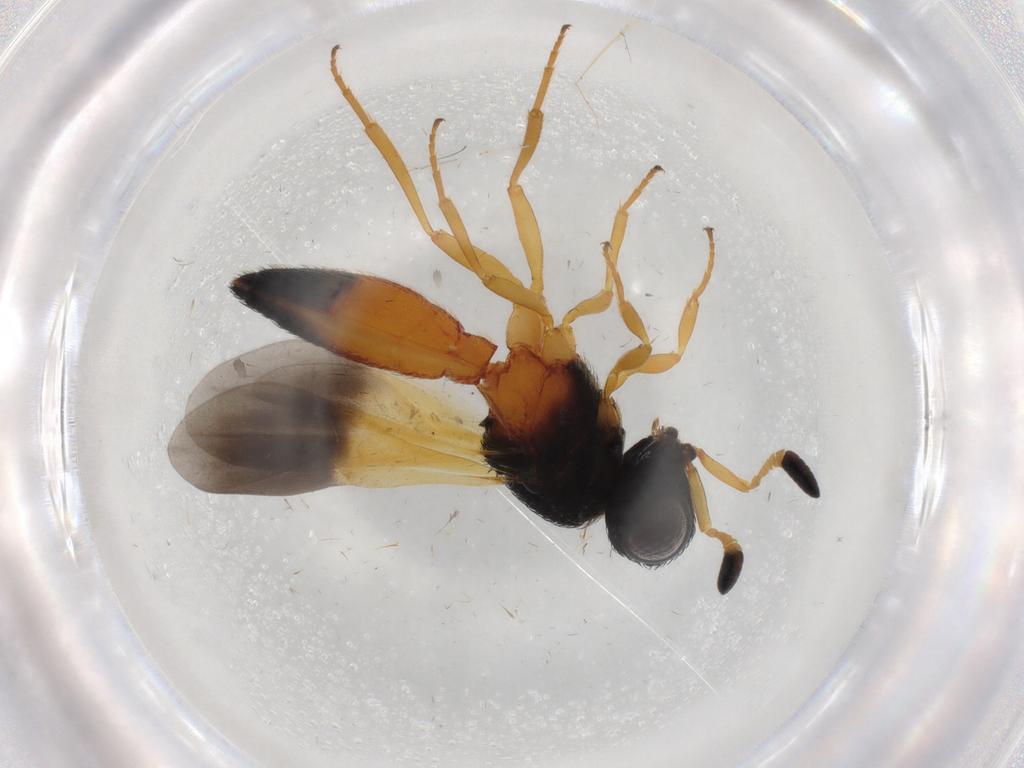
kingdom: Animalia
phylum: Arthropoda
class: Insecta
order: Hymenoptera
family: Scelionidae
